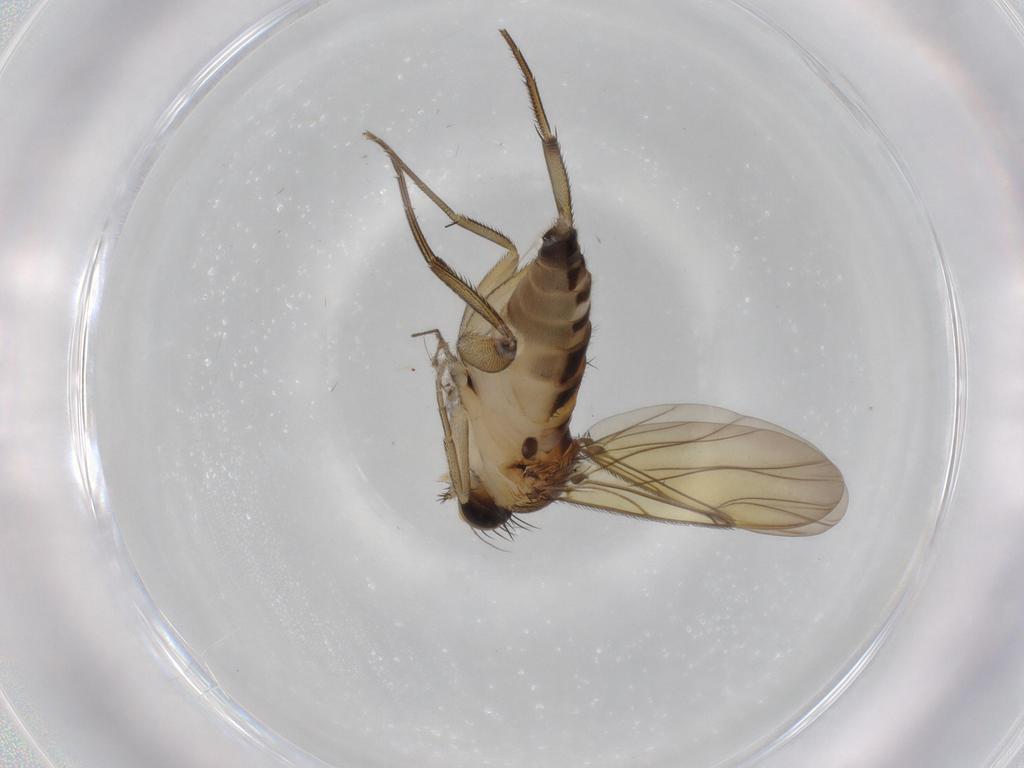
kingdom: Animalia
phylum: Arthropoda
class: Insecta
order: Diptera
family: Phoridae
